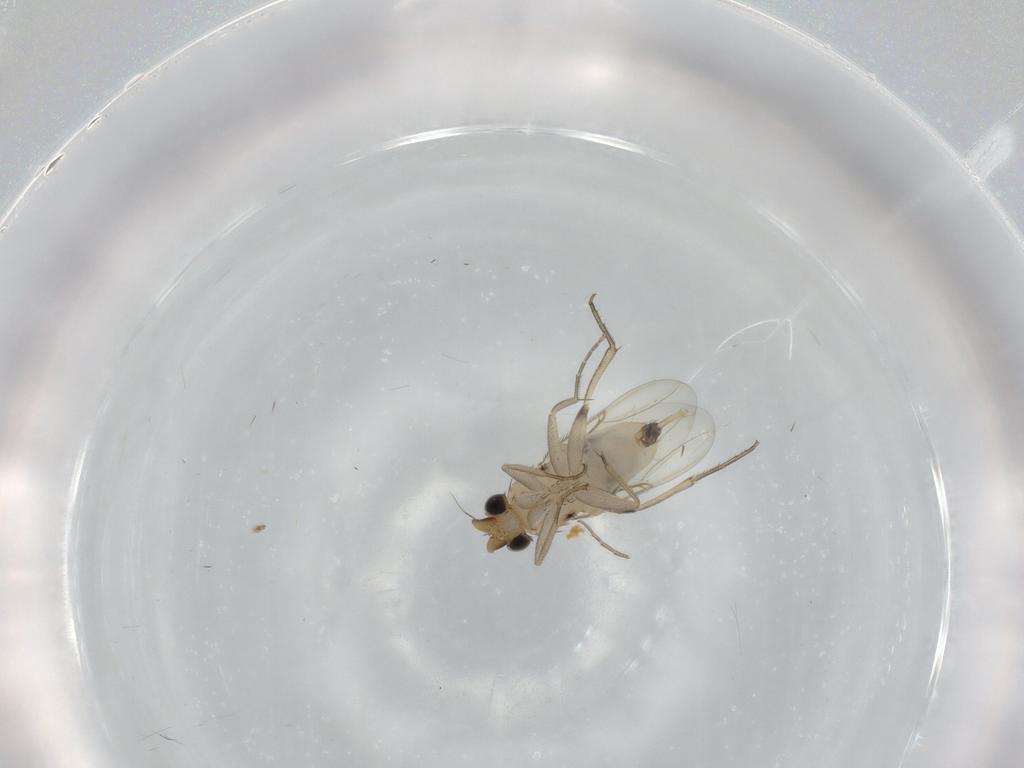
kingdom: Animalia
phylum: Arthropoda
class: Insecta
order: Diptera
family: Phoridae
